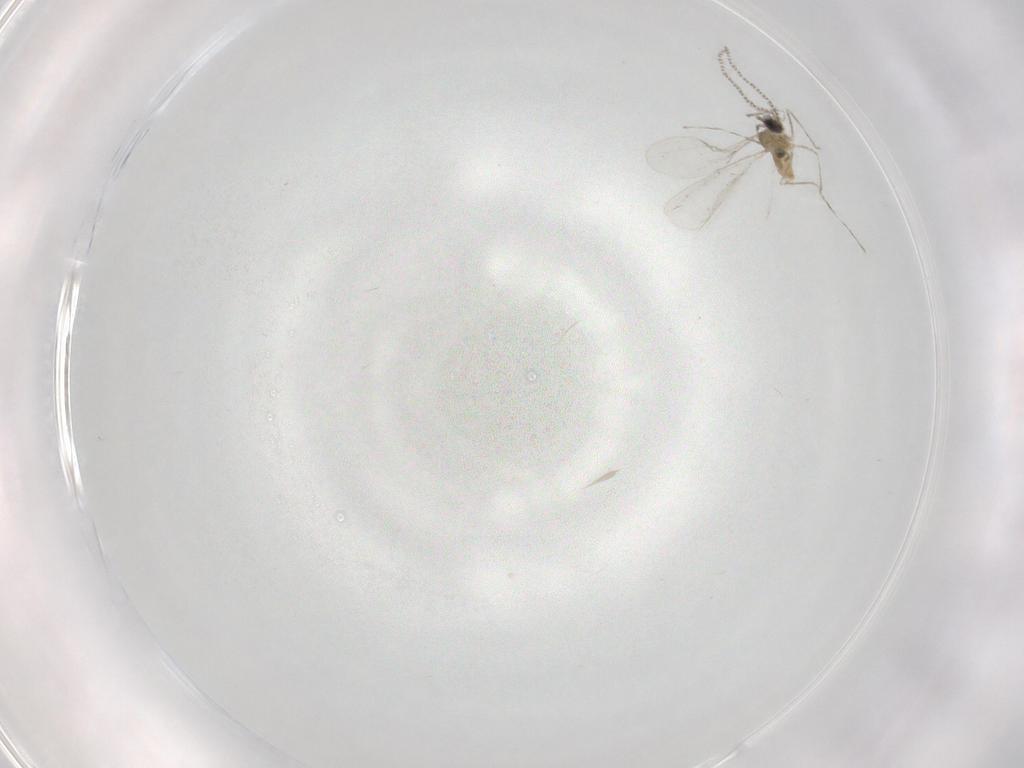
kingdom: Animalia
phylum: Arthropoda
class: Insecta
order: Diptera
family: Cecidomyiidae
